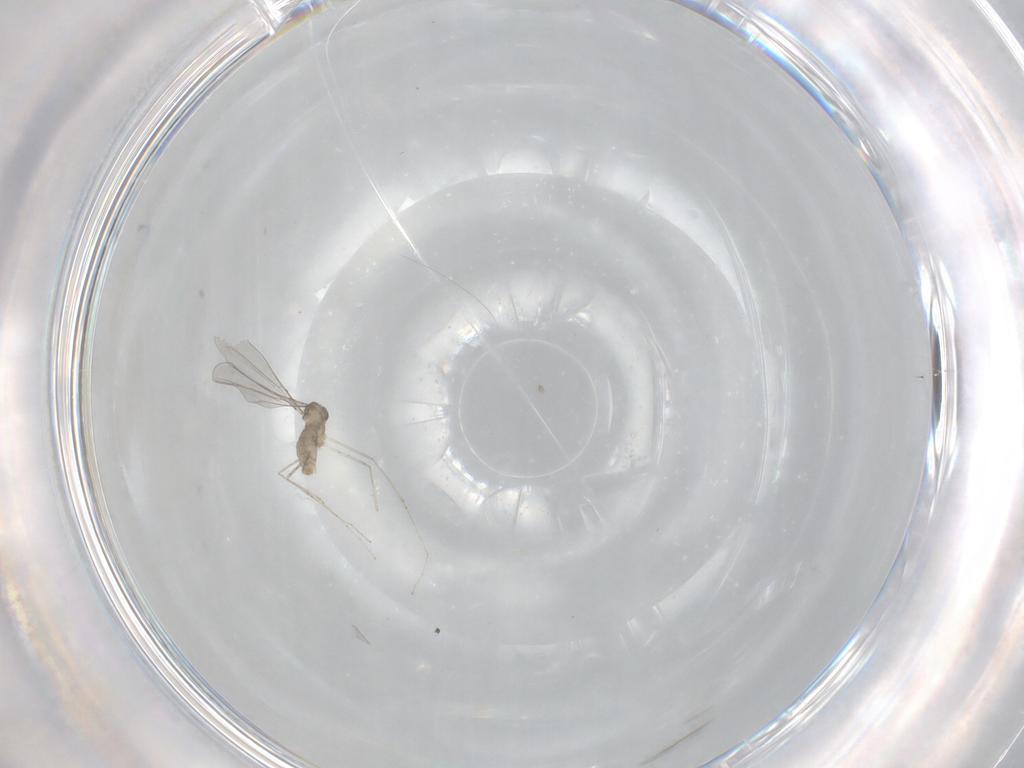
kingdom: Animalia
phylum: Arthropoda
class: Insecta
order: Diptera
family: Cecidomyiidae
